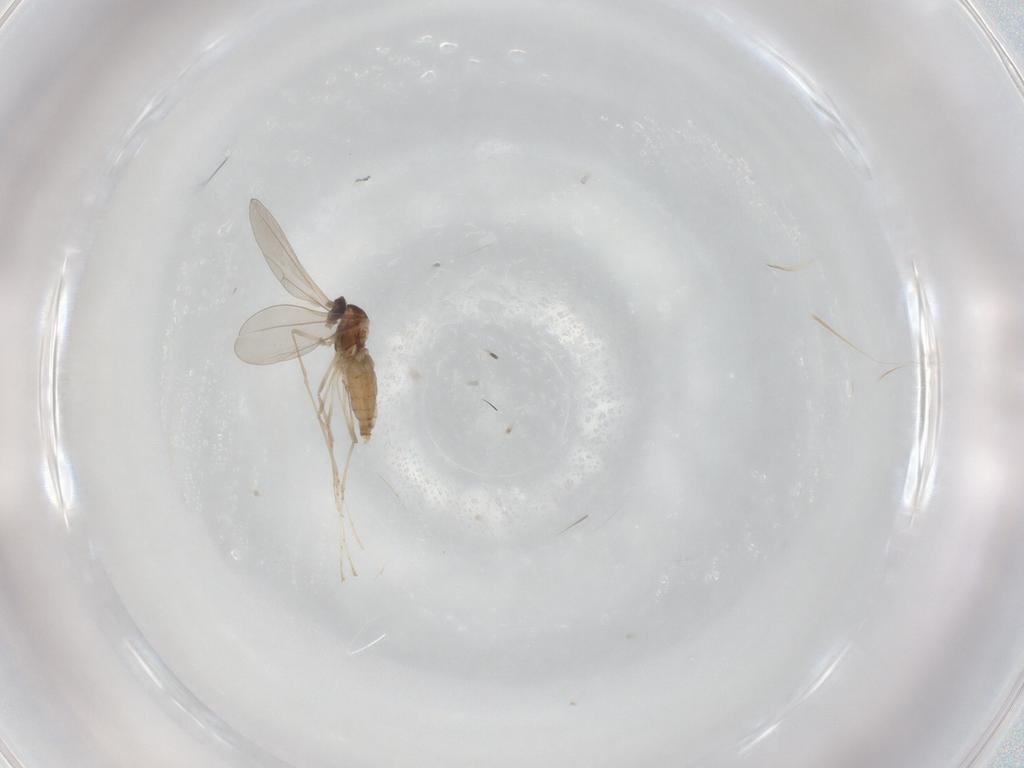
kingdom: Animalia
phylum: Arthropoda
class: Insecta
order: Diptera
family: Cecidomyiidae
